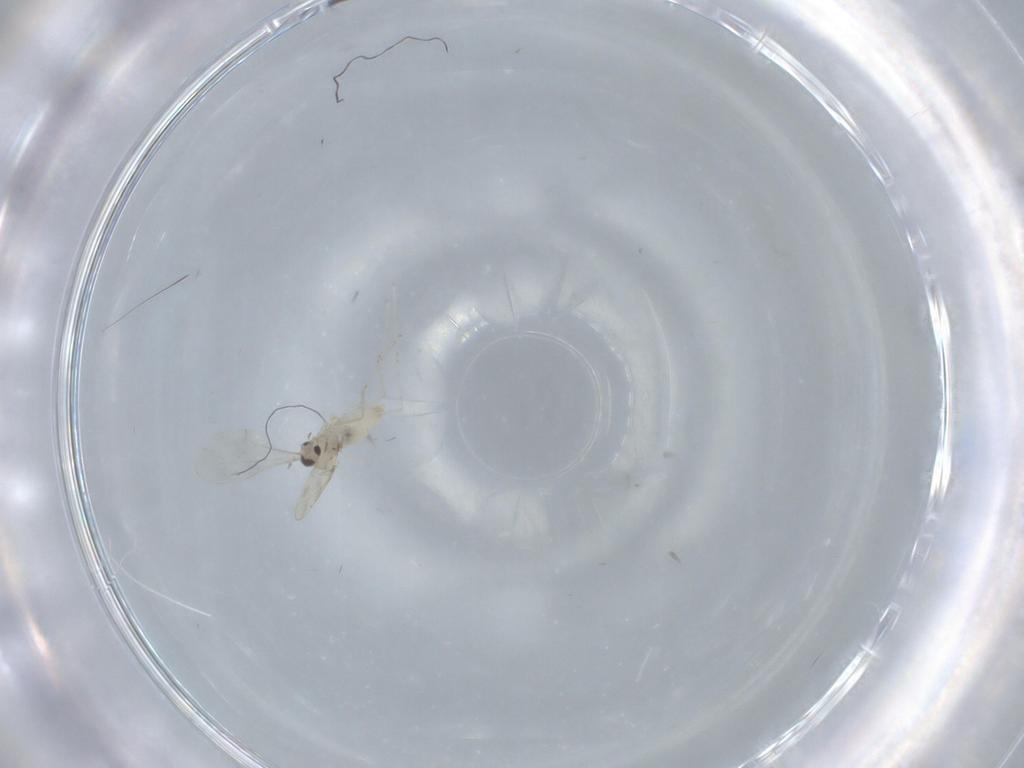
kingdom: Animalia
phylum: Arthropoda
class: Insecta
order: Diptera
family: Cecidomyiidae
